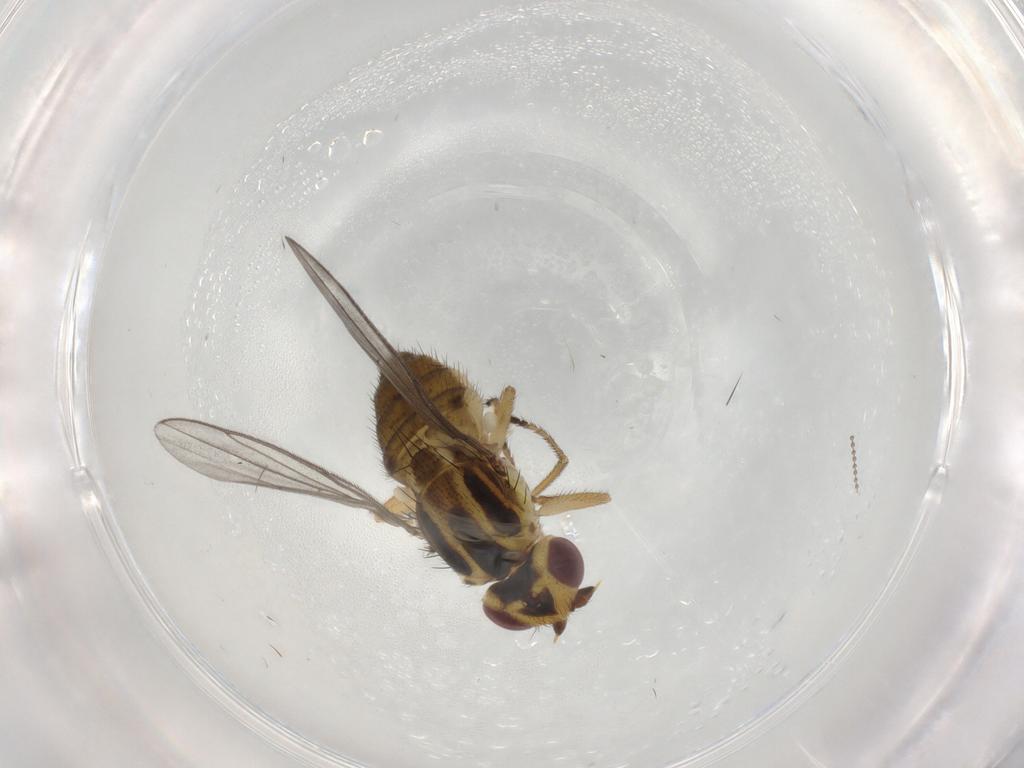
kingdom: Animalia
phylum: Arthropoda
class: Insecta
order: Diptera
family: Chloropidae
